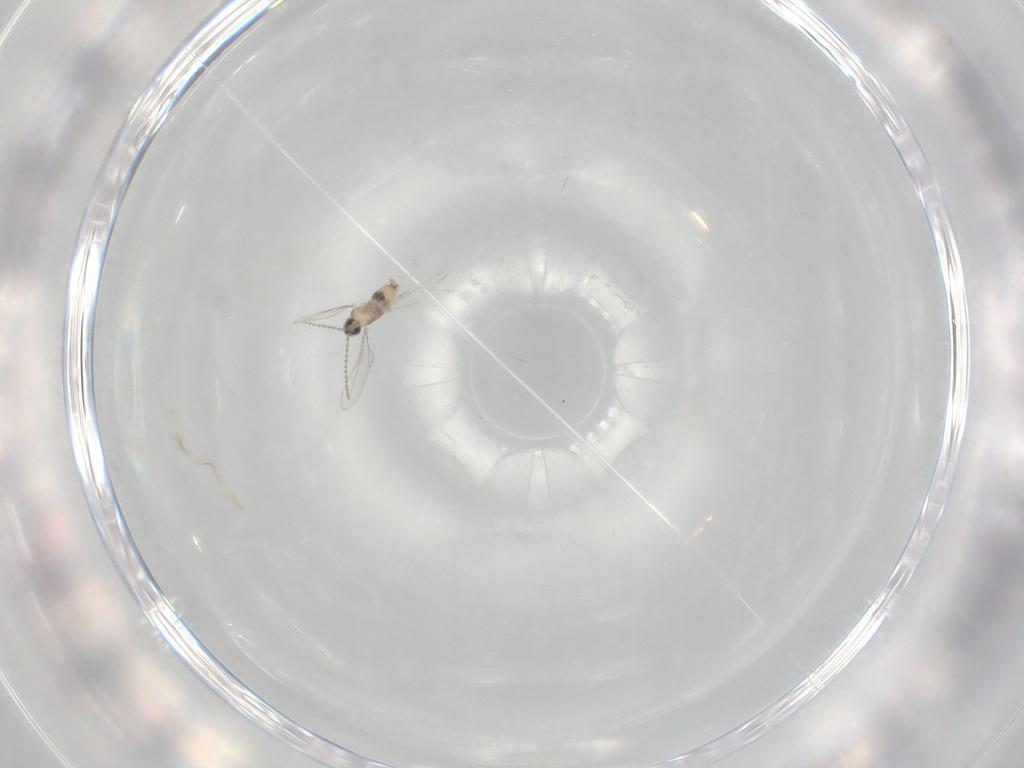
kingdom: Animalia
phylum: Arthropoda
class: Insecta
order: Diptera
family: Cecidomyiidae
